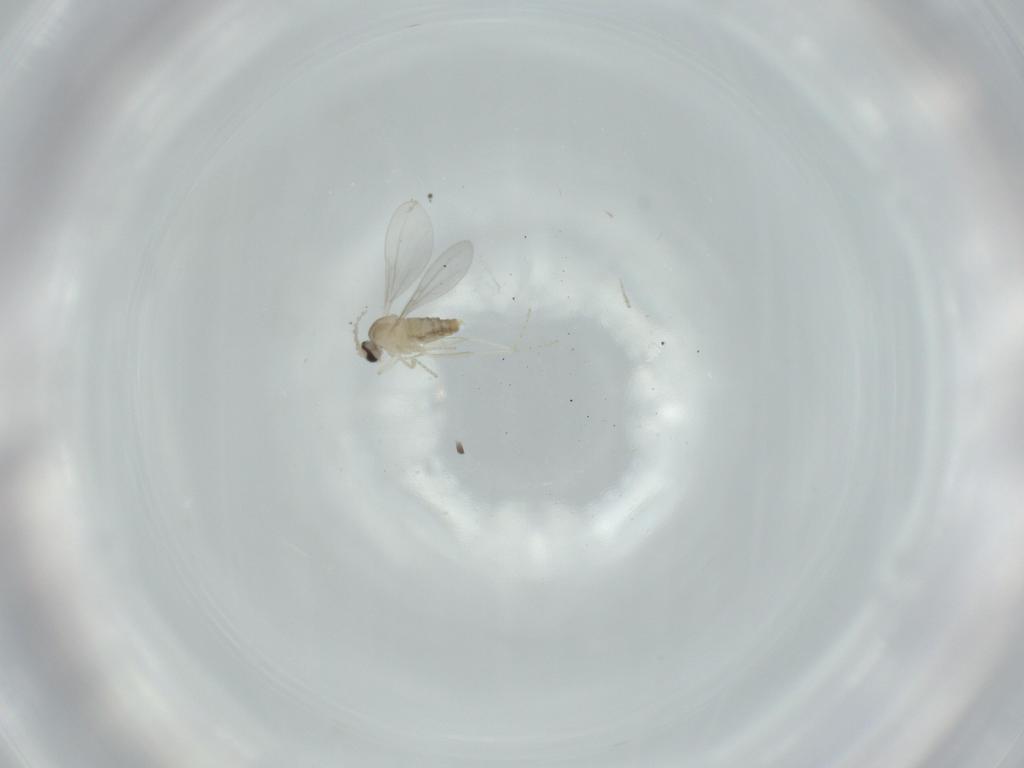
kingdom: Animalia
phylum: Arthropoda
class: Insecta
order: Diptera
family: Cecidomyiidae
